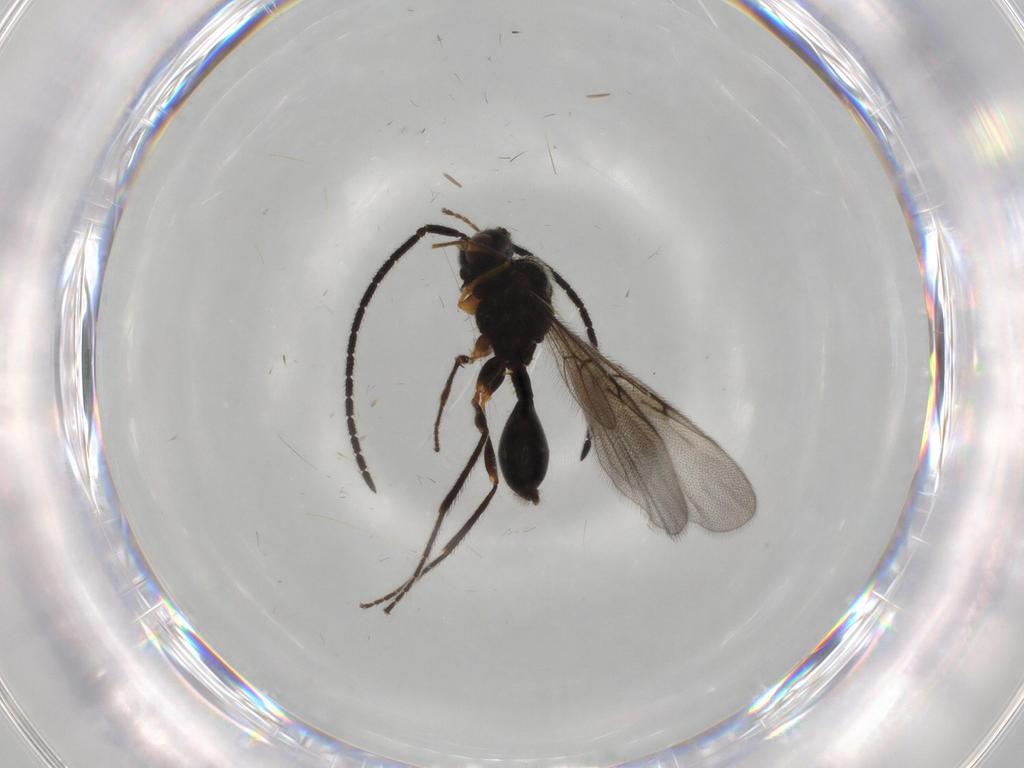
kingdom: Animalia
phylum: Arthropoda
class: Insecta
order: Hymenoptera
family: Diapriidae
